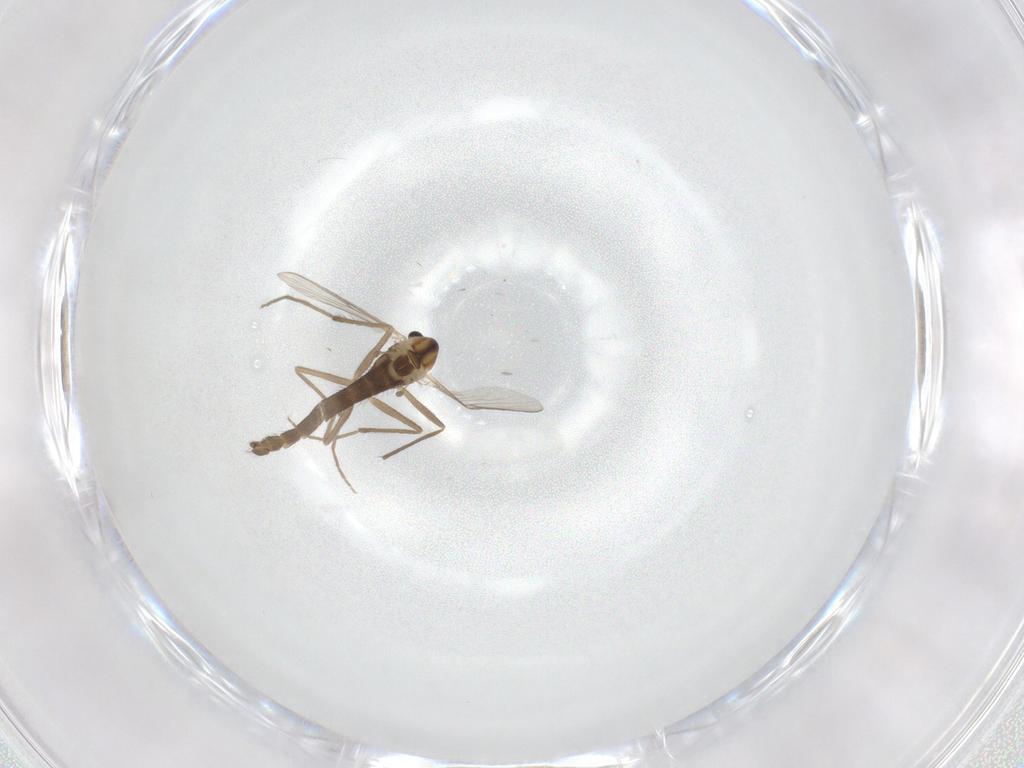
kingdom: Animalia
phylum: Arthropoda
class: Insecta
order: Diptera
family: Chironomidae
